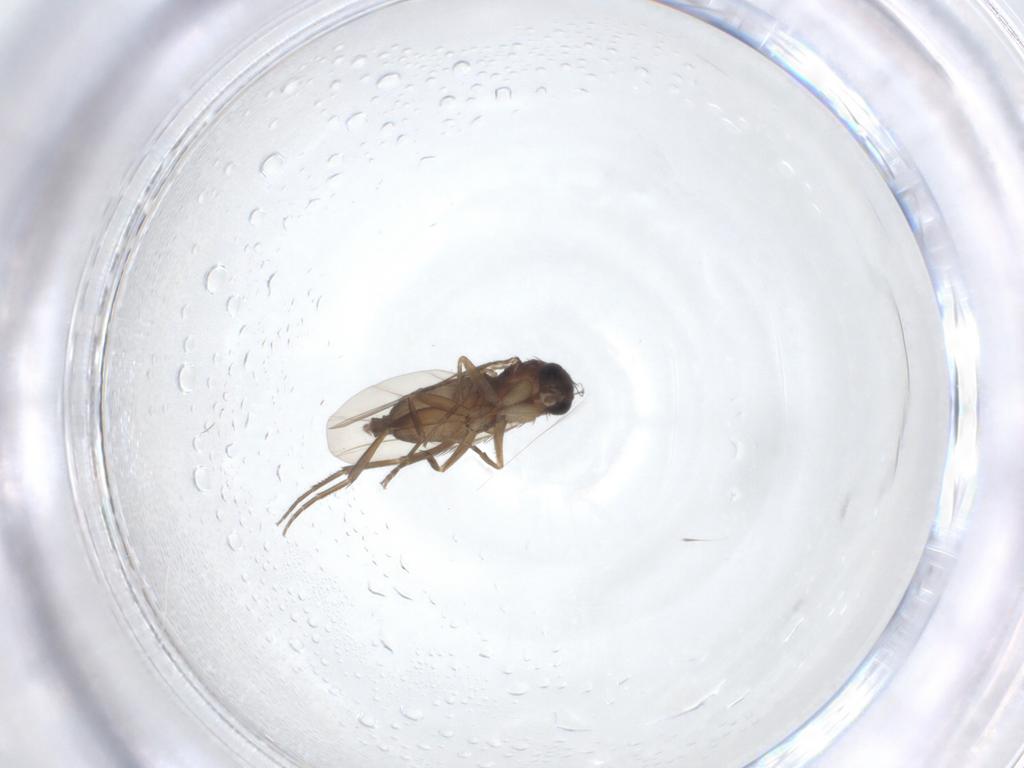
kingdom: Animalia
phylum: Arthropoda
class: Insecta
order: Diptera
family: Phoridae
